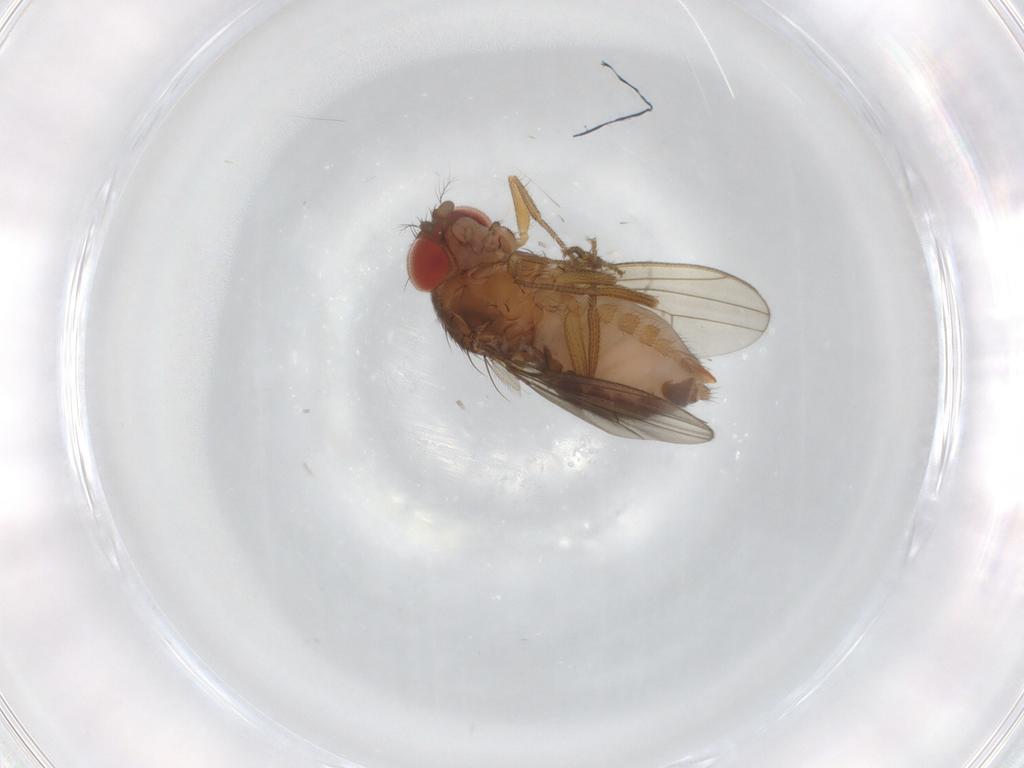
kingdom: Animalia
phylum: Arthropoda
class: Insecta
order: Diptera
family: Drosophilidae
